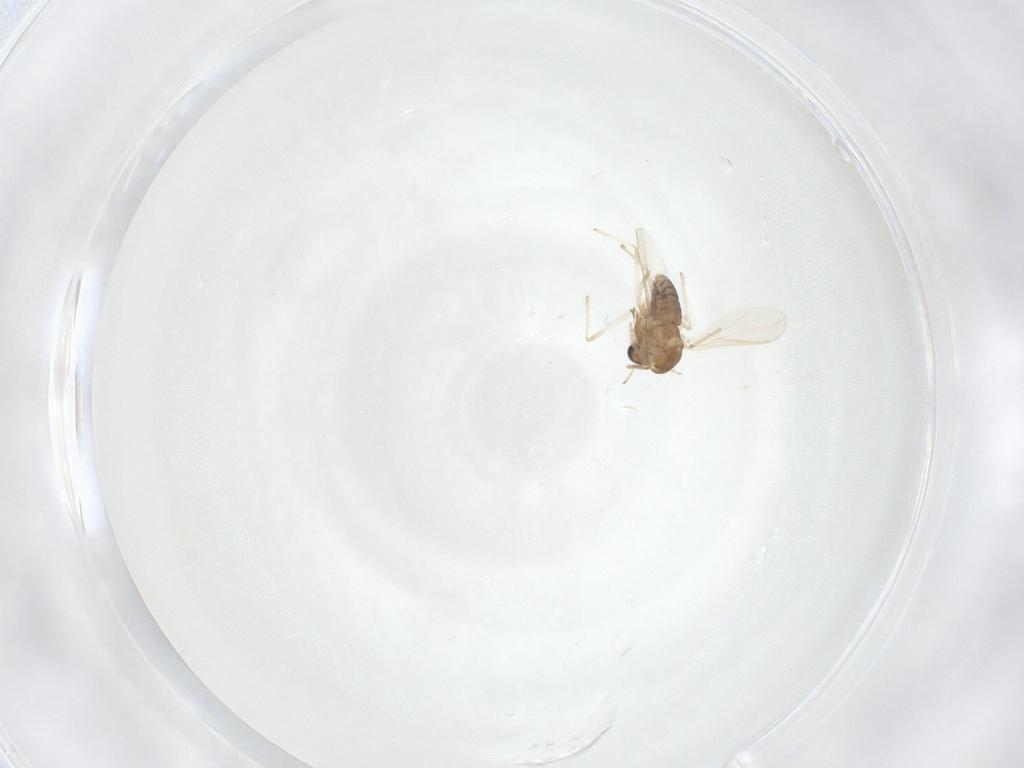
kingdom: Animalia
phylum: Arthropoda
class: Insecta
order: Diptera
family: Chironomidae
